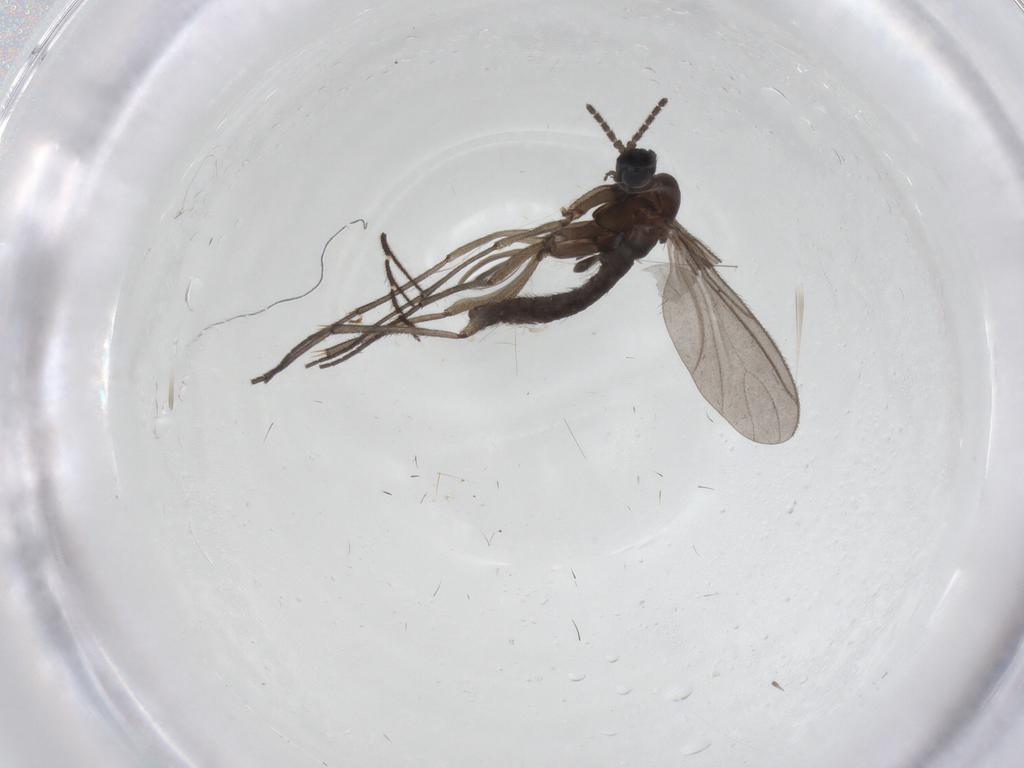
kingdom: Animalia
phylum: Arthropoda
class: Insecta
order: Diptera
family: Sciaridae
